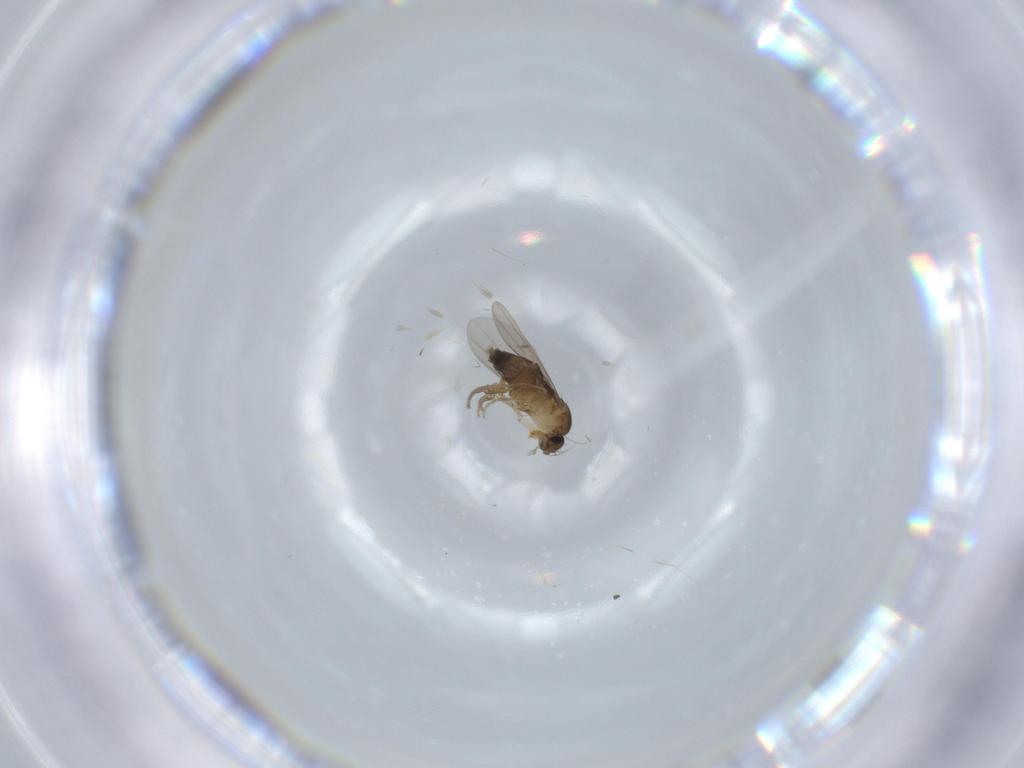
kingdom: Animalia
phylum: Arthropoda
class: Insecta
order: Diptera
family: Phoridae
